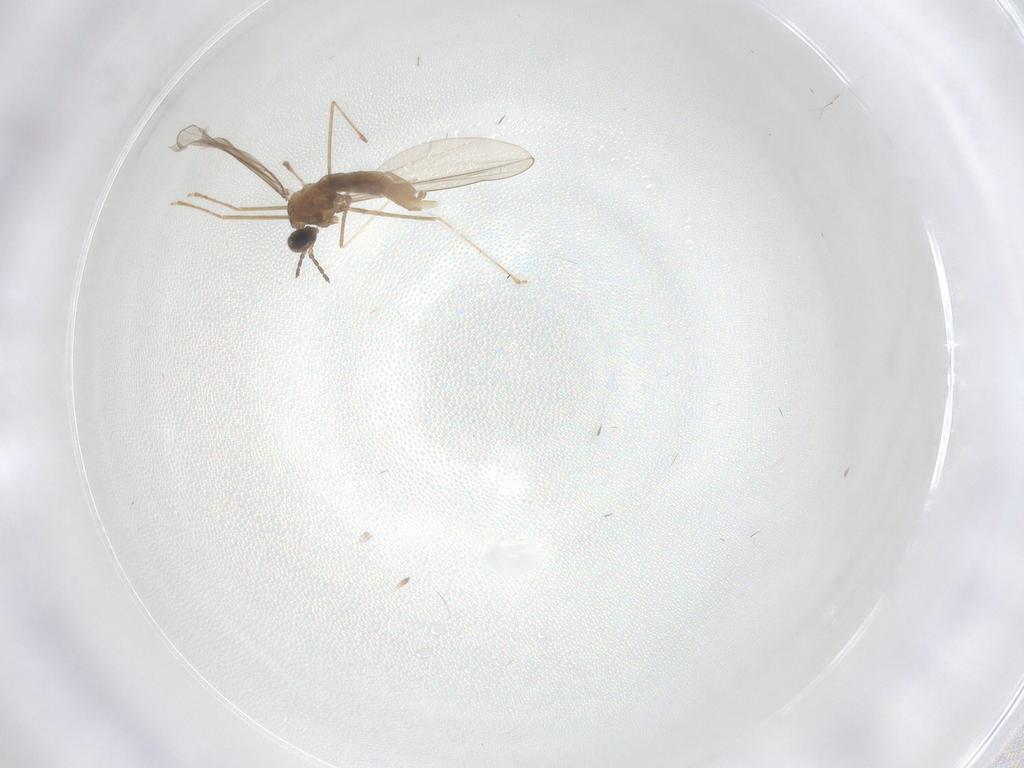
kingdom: Animalia
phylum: Arthropoda
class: Insecta
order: Diptera
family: Cecidomyiidae
